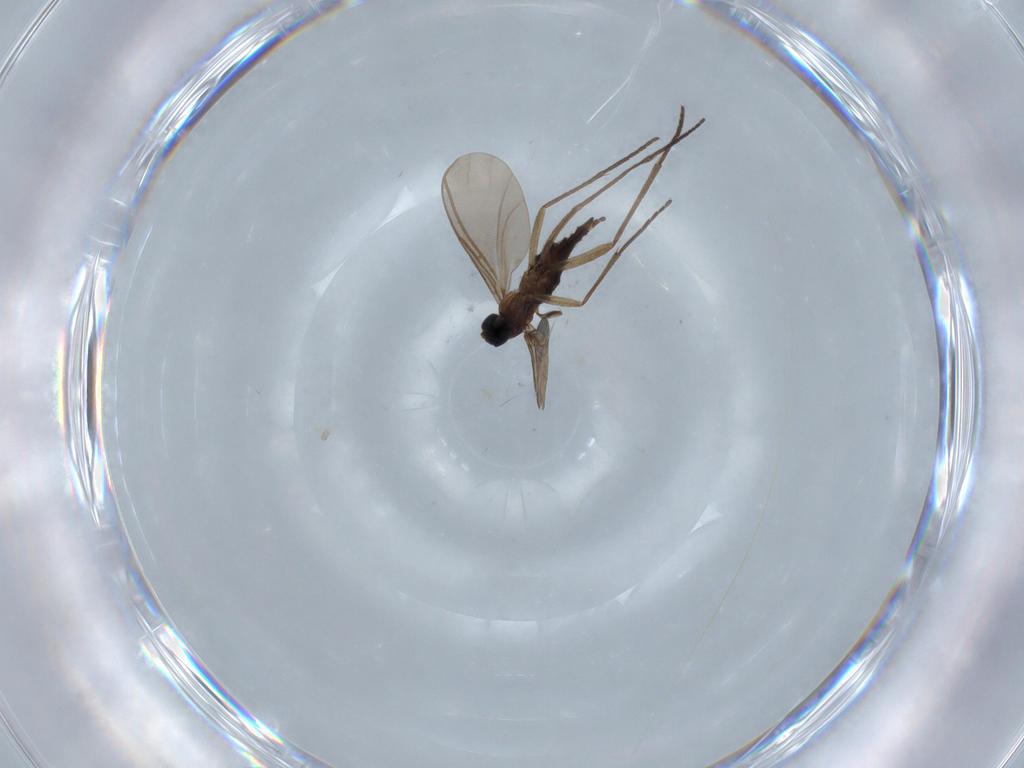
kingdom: Animalia
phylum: Arthropoda
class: Insecta
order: Diptera
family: Sciaridae
